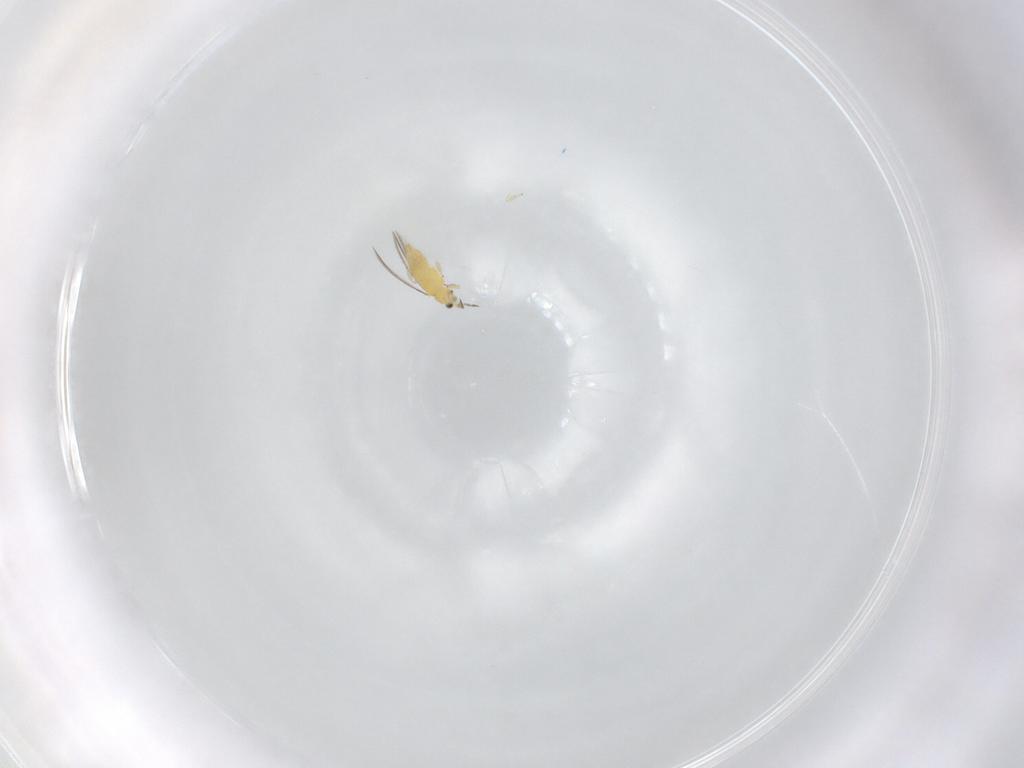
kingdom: Animalia
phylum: Arthropoda
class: Insecta
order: Thysanoptera
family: Thripidae
